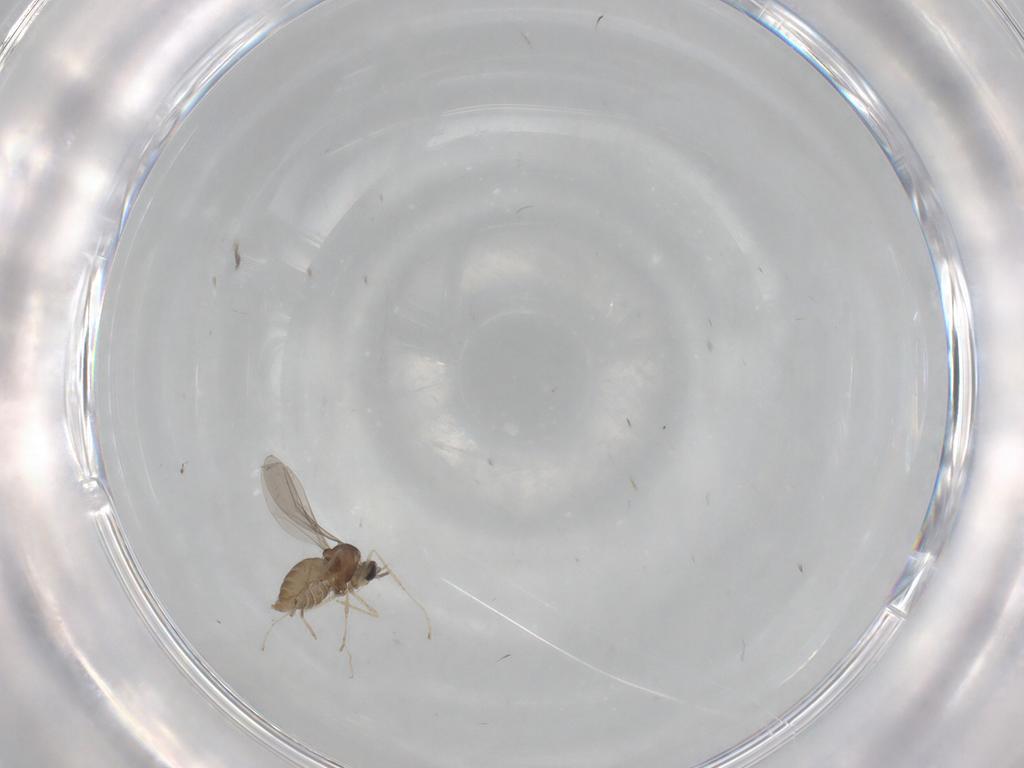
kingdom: Animalia
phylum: Arthropoda
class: Insecta
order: Diptera
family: Cecidomyiidae
